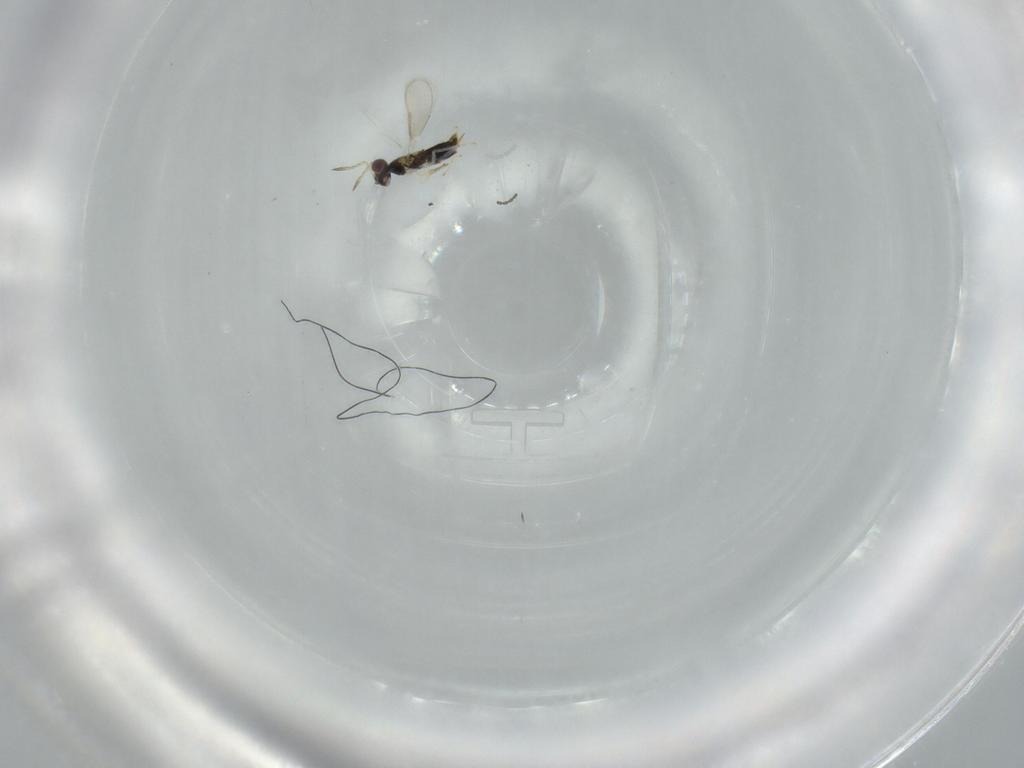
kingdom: Animalia
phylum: Arthropoda
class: Insecta
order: Hymenoptera
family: Aphelinidae
